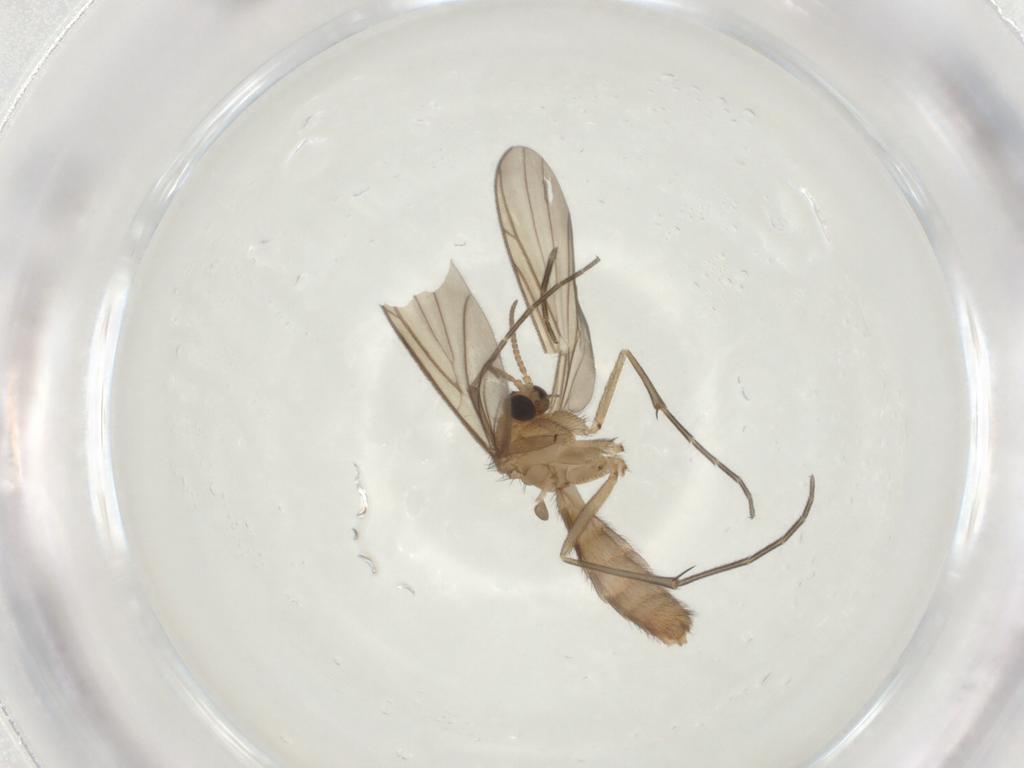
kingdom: Animalia
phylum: Arthropoda
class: Insecta
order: Diptera
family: Keroplatidae
